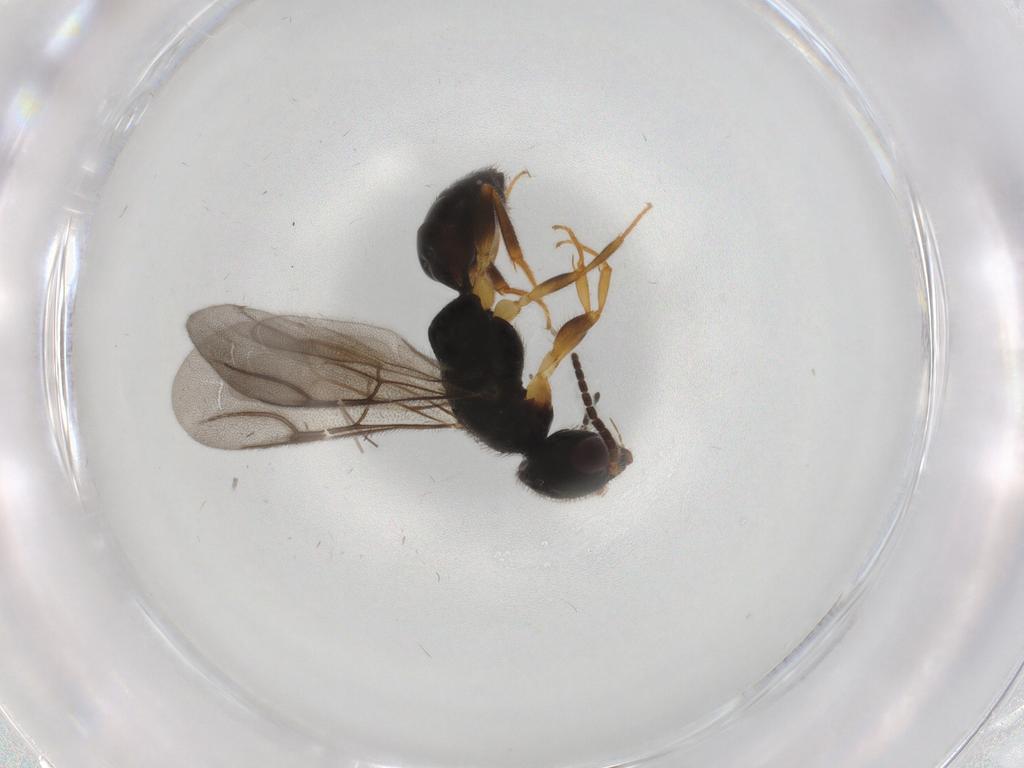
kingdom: Animalia
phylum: Arthropoda
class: Insecta
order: Hymenoptera
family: Bethylidae
